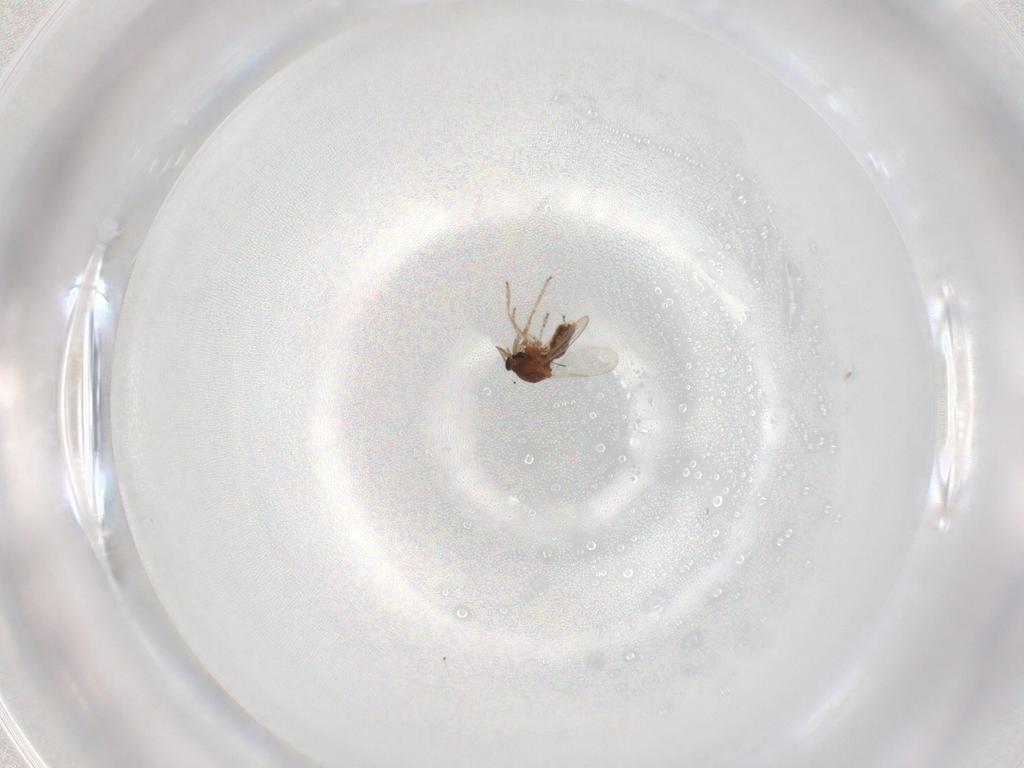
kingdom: Animalia
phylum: Arthropoda
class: Insecta
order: Diptera
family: Ceratopogonidae
